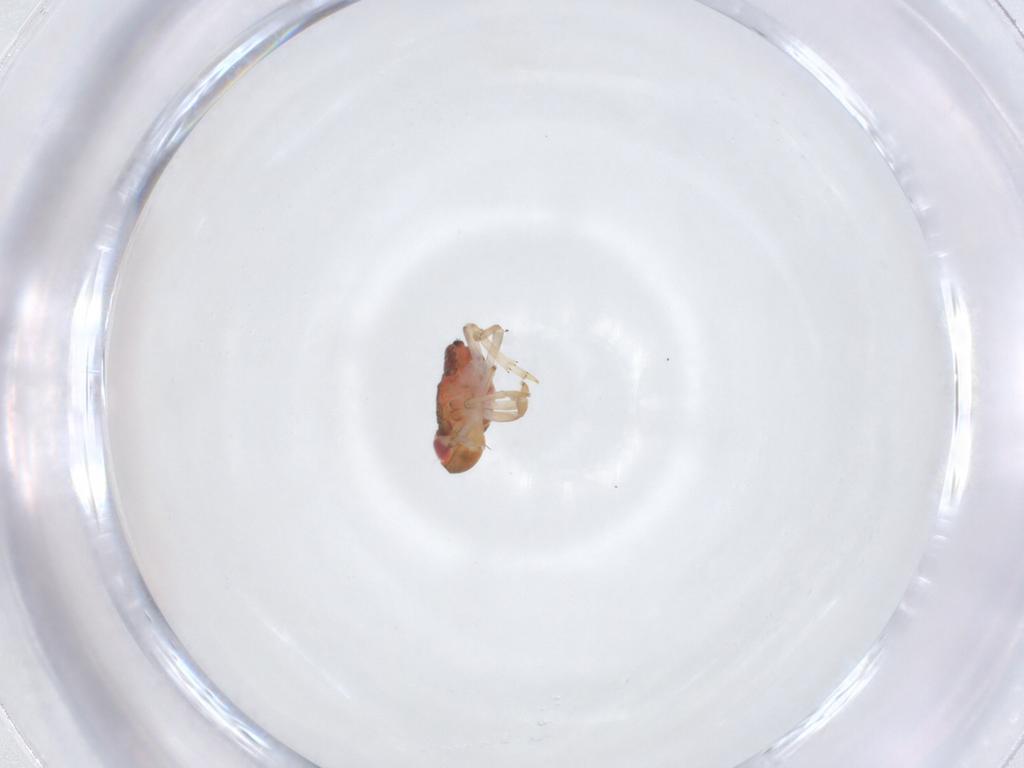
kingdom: Animalia
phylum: Arthropoda
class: Insecta
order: Hemiptera
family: Issidae
